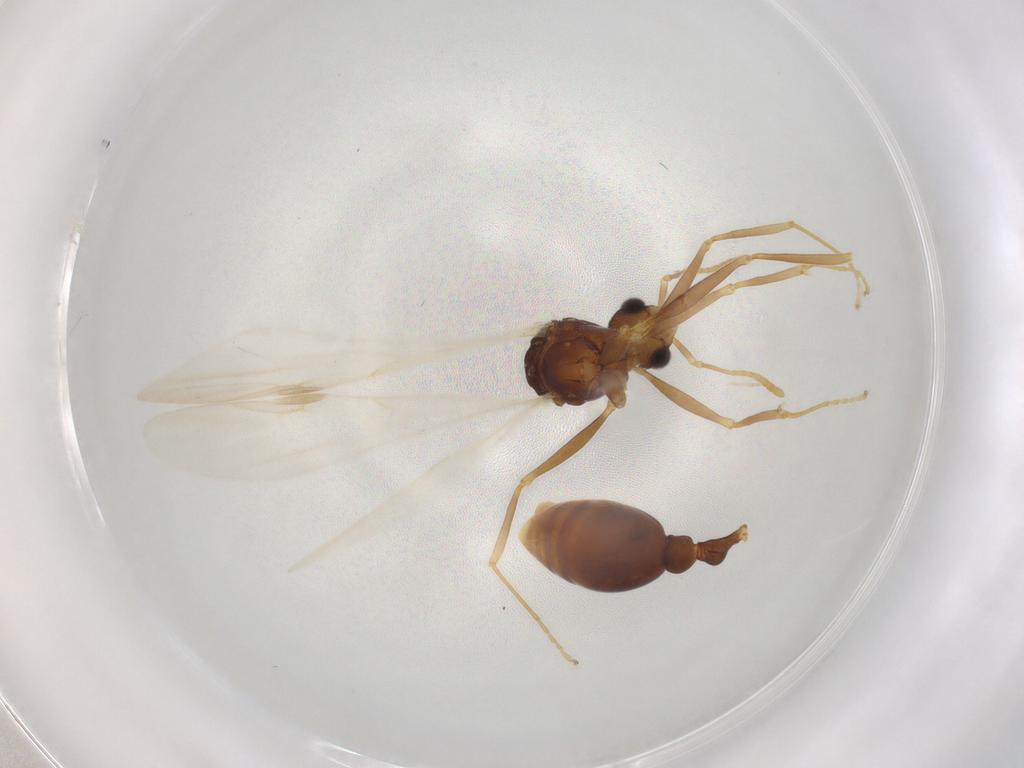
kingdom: Animalia
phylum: Arthropoda
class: Insecta
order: Hymenoptera
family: Formicidae
